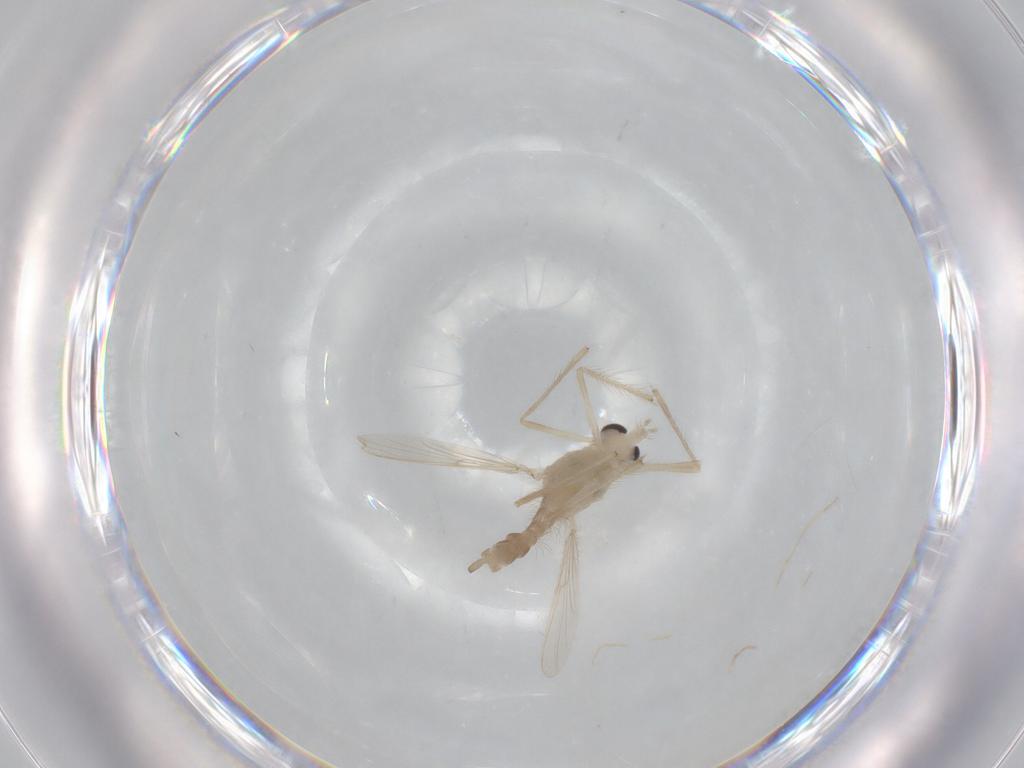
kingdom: Animalia
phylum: Arthropoda
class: Insecta
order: Diptera
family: Chironomidae
